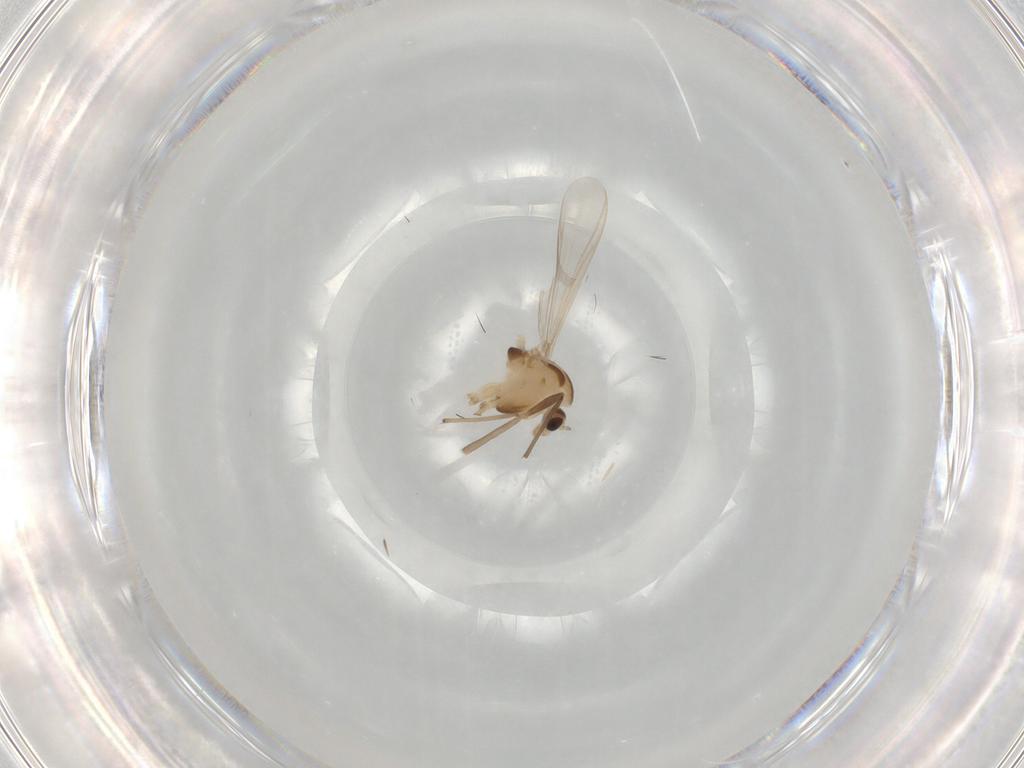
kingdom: Animalia
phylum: Arthropoda
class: Insecta
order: Diptera
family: Chironomidae
